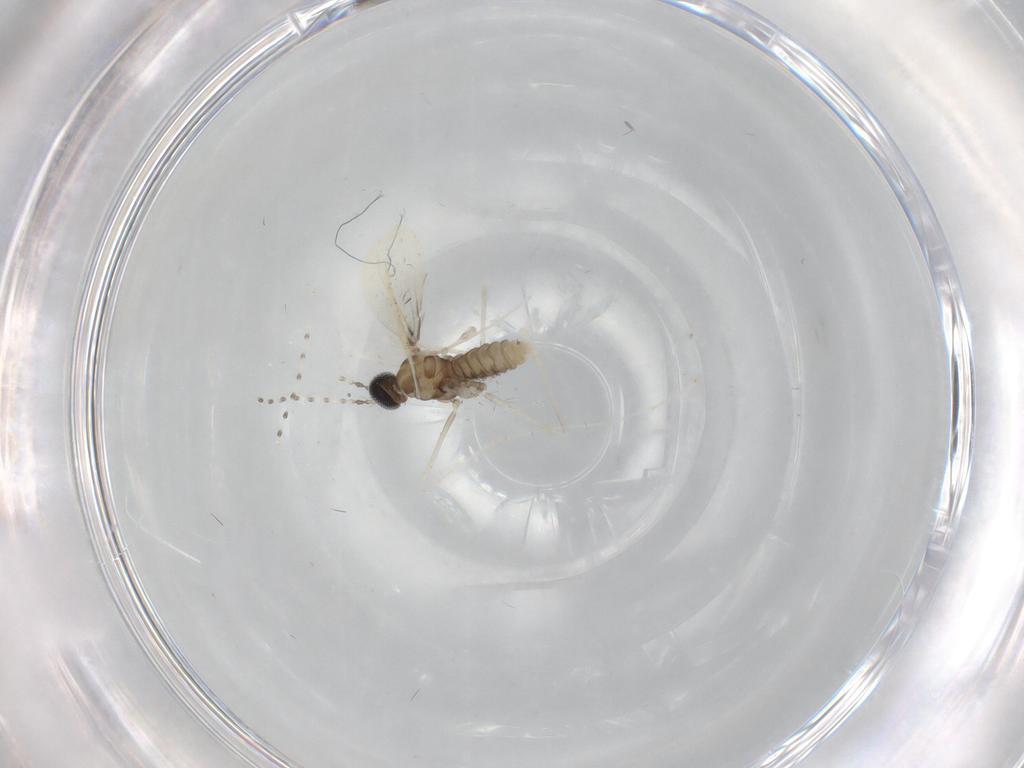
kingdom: Animalia
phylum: Arthropoda
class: Insecta
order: Diptera
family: Cecidomyiidae
